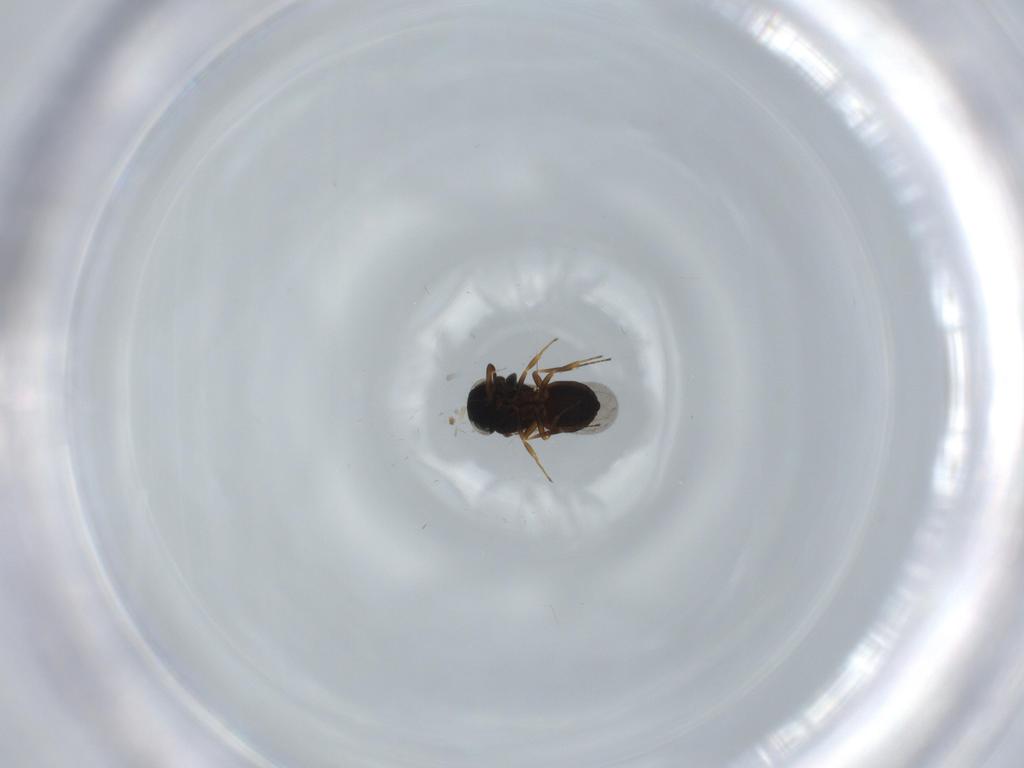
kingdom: Animalia
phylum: Arthropoda
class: Insecta
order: Hymenoptera
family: Scelionidae
